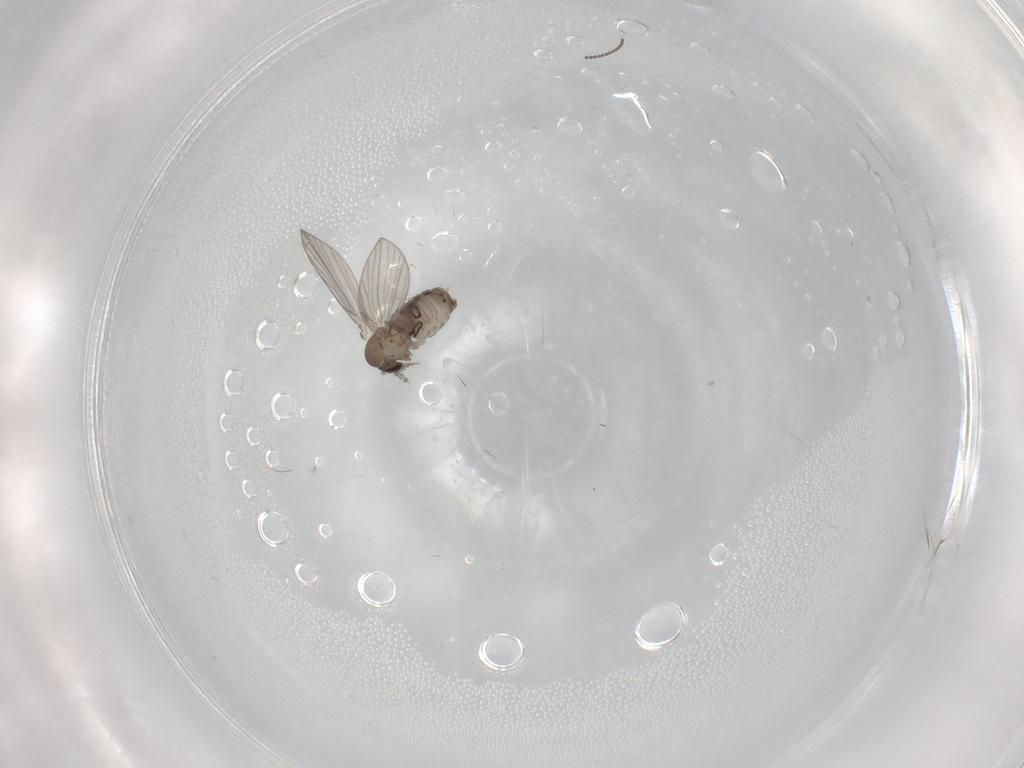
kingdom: Animalia
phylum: Arthropoda
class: Insecta
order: Diptera
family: Psychodidae
